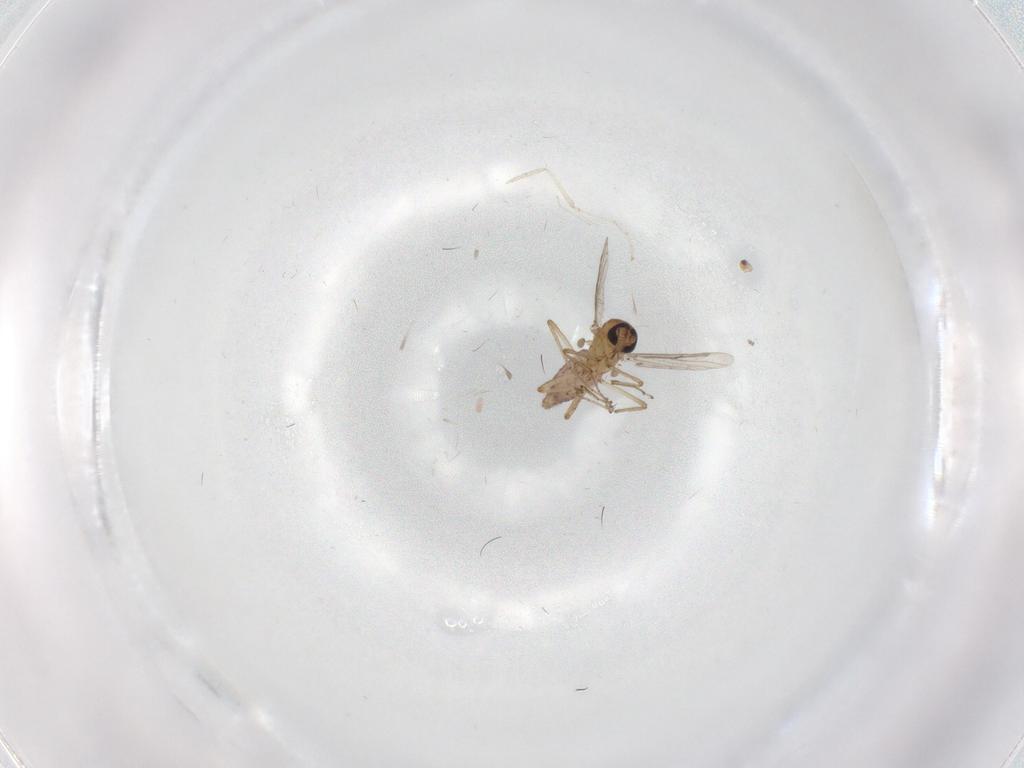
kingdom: Animalia
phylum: Arthropoda
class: Insecta
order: Diptera
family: Cecidomyiidae
